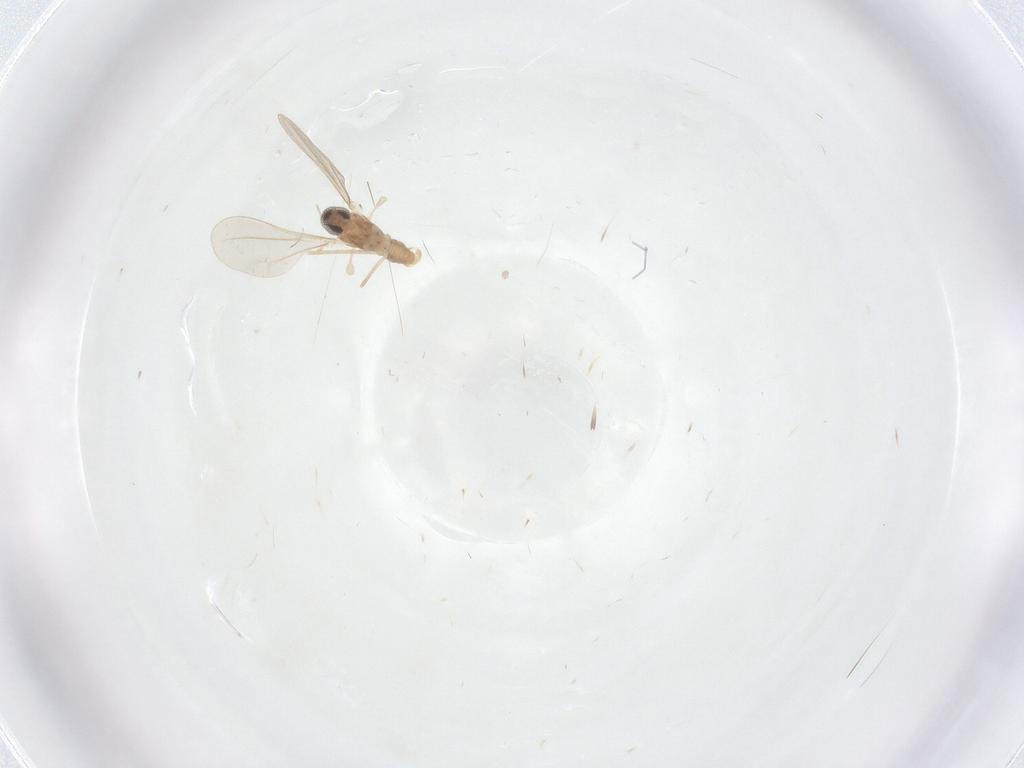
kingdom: Animalia
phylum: Arthropoda
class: Insecta
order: Diptera
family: Cecidomyiidae
